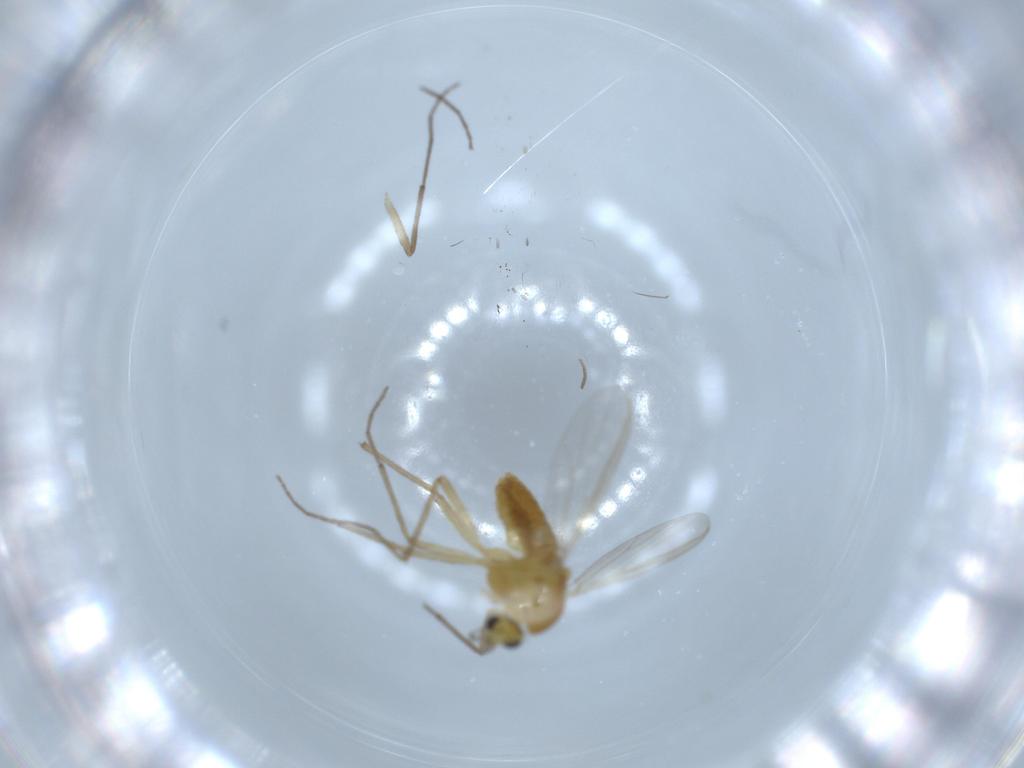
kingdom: Animalia
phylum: Arthropoda
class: Insecta
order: Diptera
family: Chironomidae
